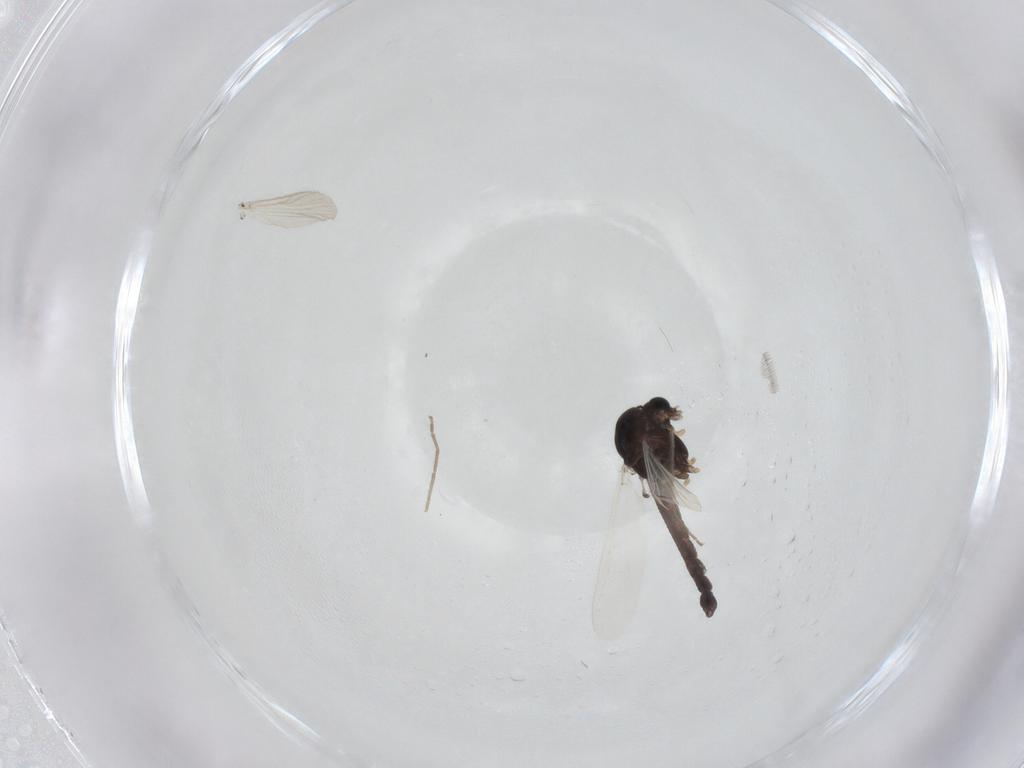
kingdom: Animalia
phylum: Arthropoda
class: Insecta
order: Diptera
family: Chironomidae
